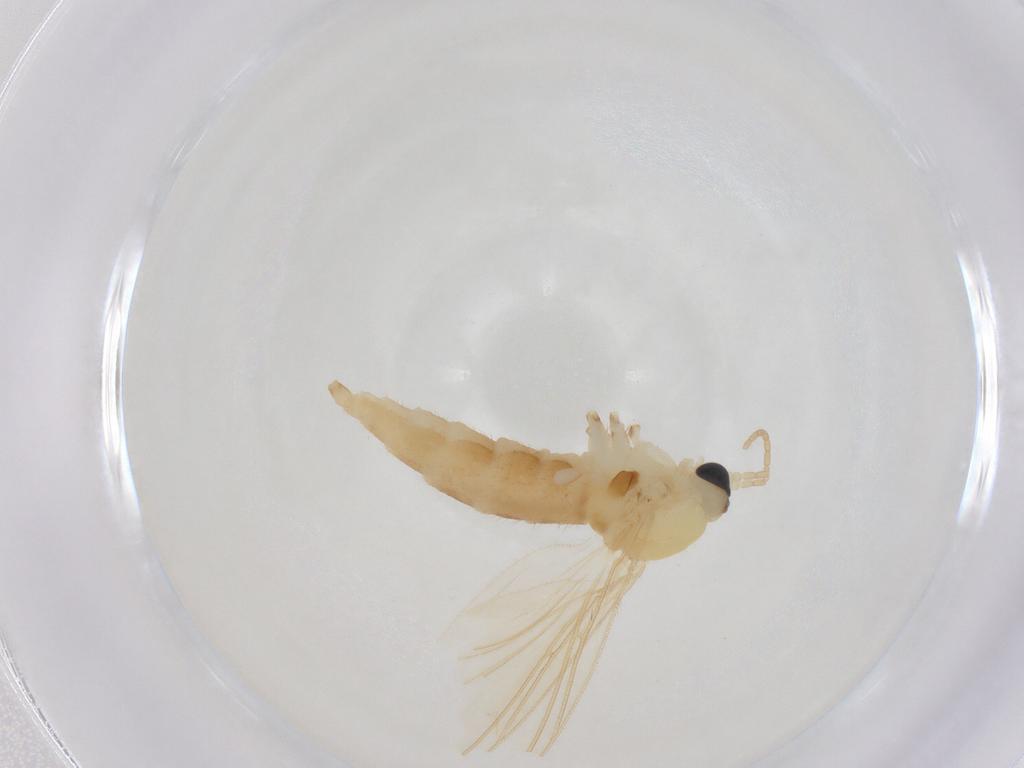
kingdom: Animalia
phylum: Arthropoda
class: Insecta
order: Diptera
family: Sciaridae
